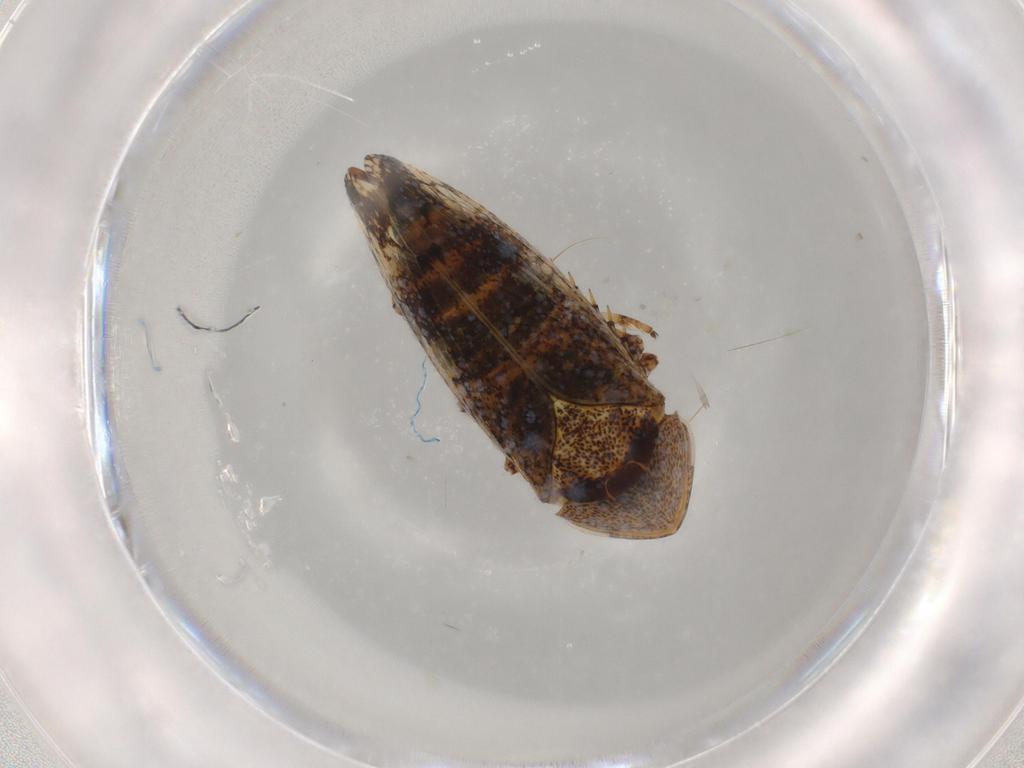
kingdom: Animalia
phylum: Arthropoda
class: Insecta
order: Hemiptera
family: Cicadellidae
